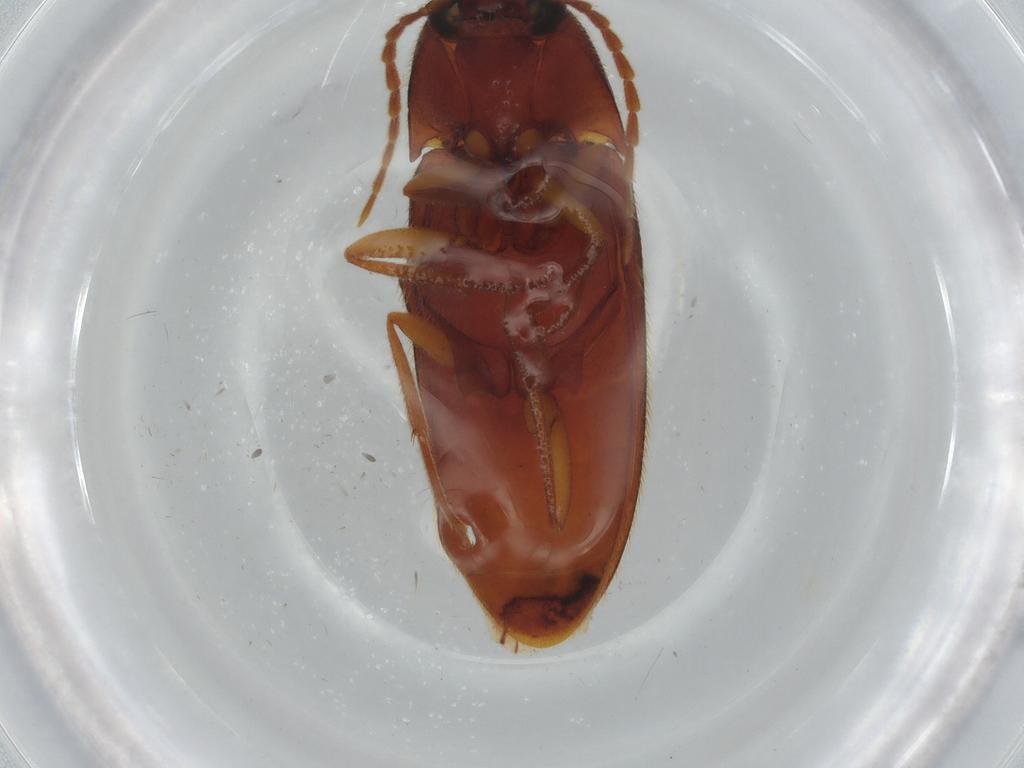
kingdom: Animalia
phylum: Arthropoda
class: Insecta
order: Coleoptera
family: Elateridae
